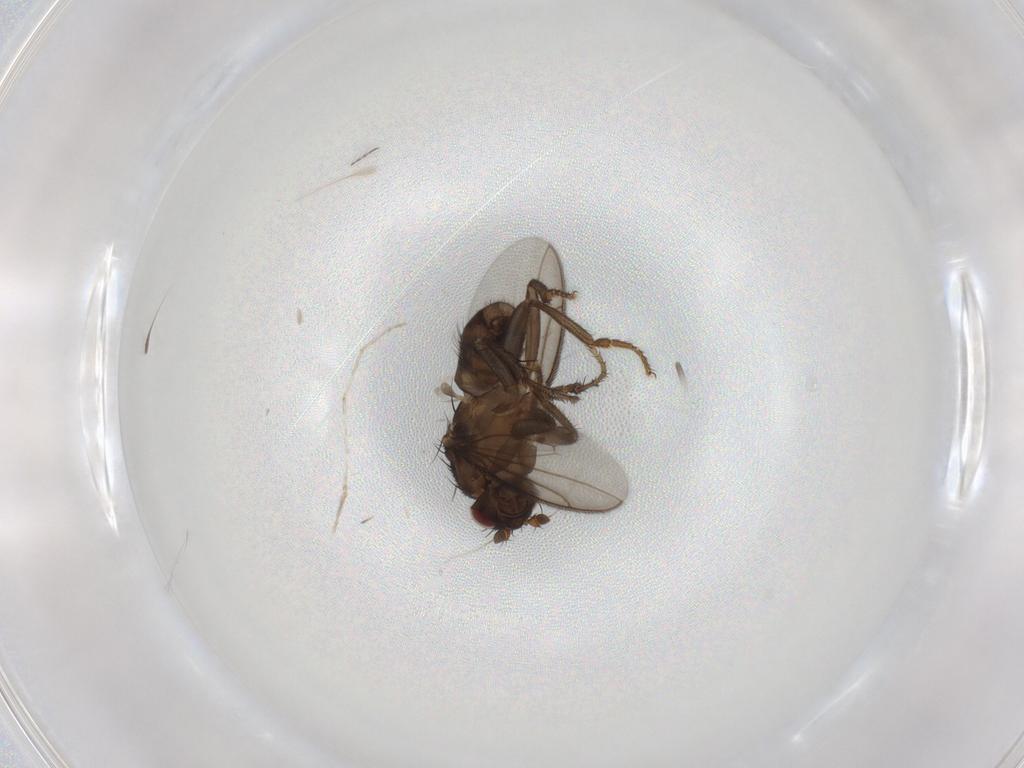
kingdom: Animalia
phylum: Arthropoda
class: Insecta
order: Diptera
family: Sphaeroceridae
